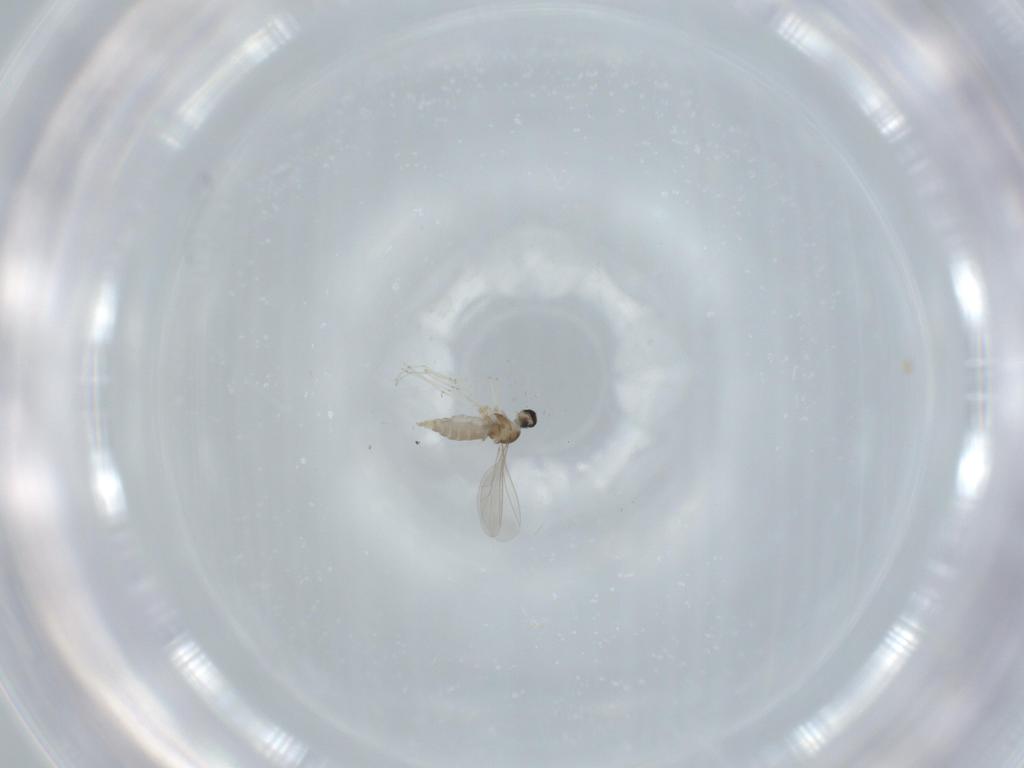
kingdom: Animalia
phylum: Arthropoda
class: Insecta
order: Diptera
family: Cecidomyiidae
